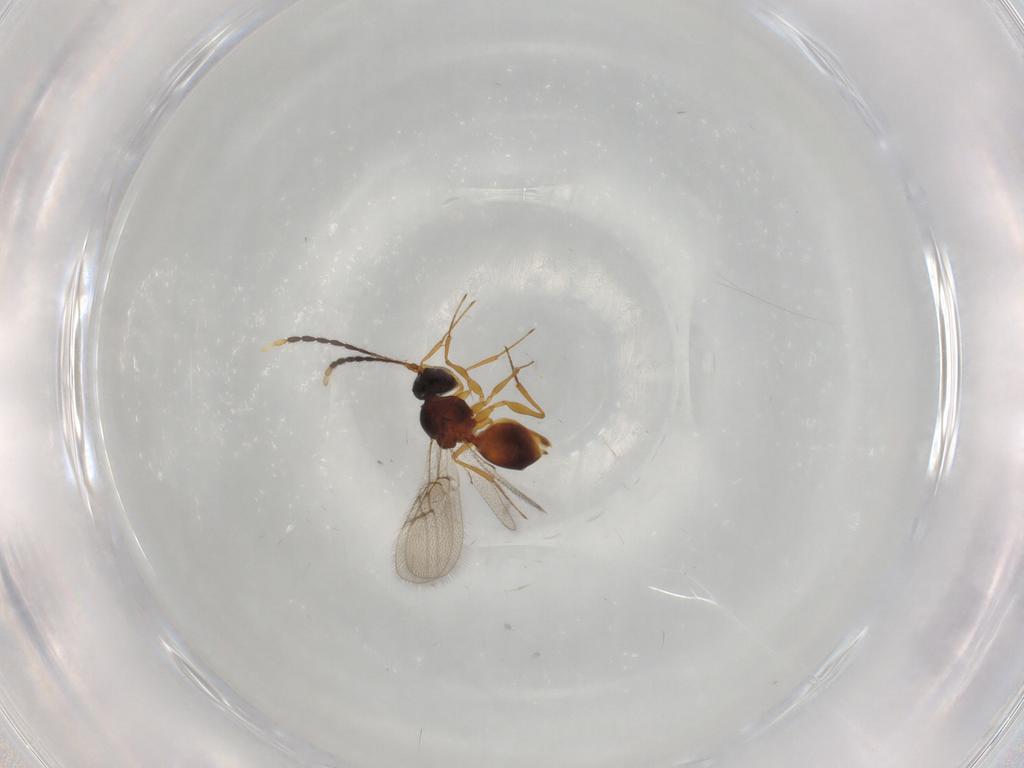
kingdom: Animalia
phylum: Arthropoda
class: Insecta
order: Hymenoptera
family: Figitidae
